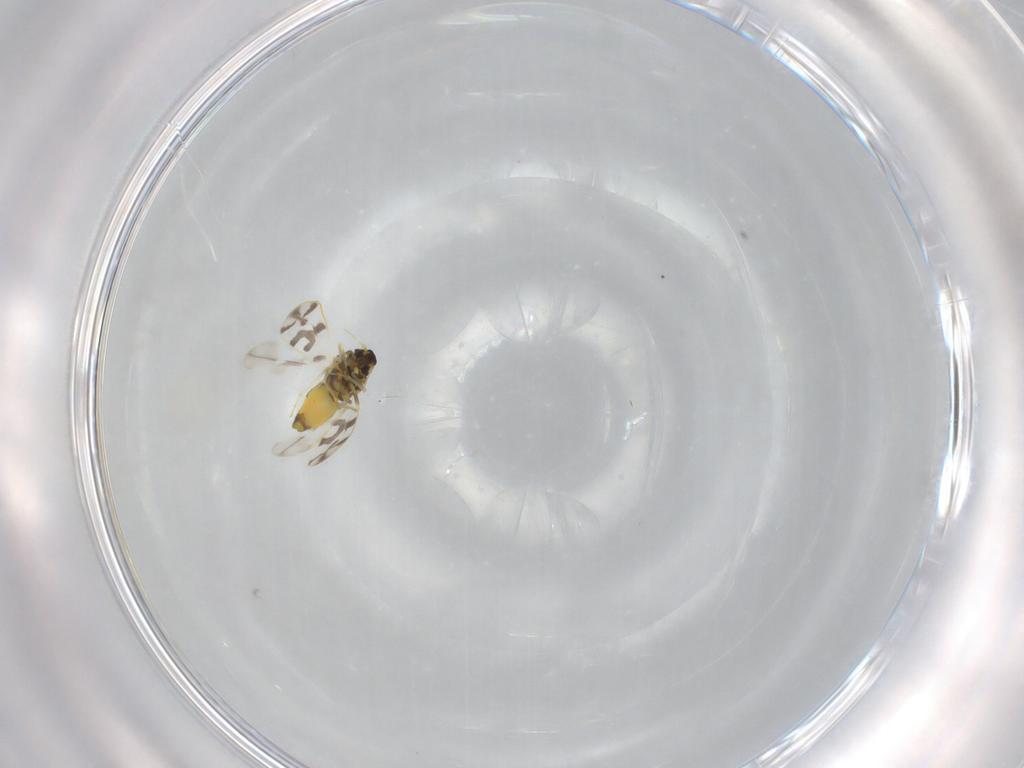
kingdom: Animalia
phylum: Arthropoda
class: Insecta
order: Hemiptera
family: Aleyrodidae
